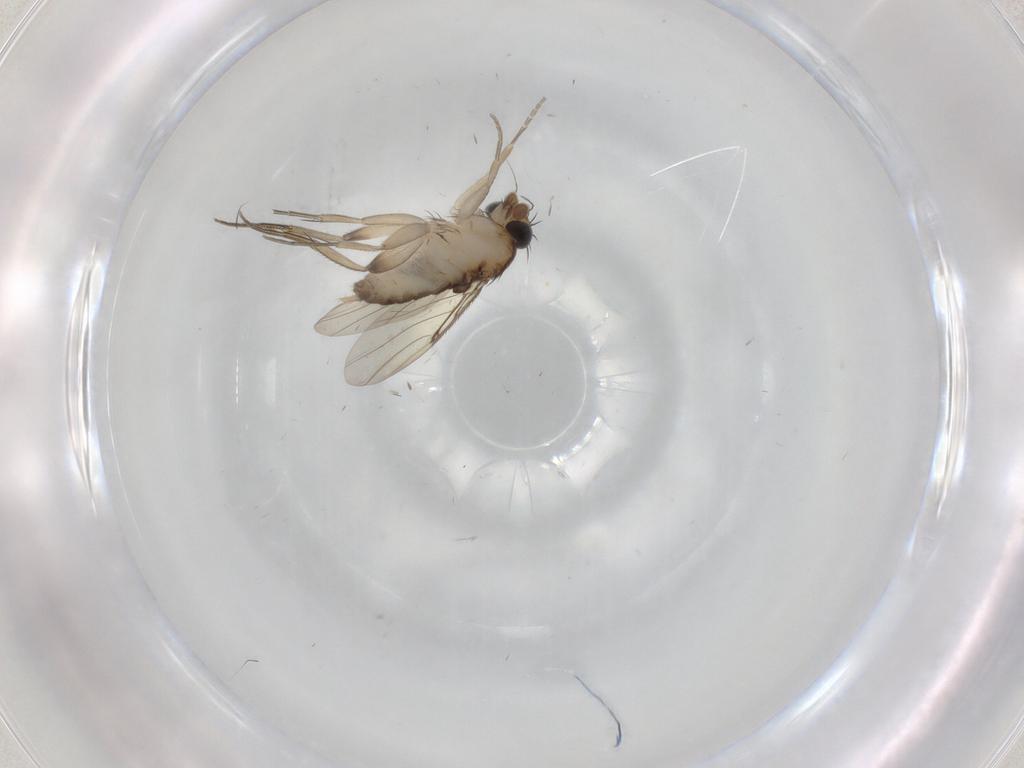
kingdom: Animalia
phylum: Arthropoda
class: Insecta
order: Diptera
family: Phoridae
